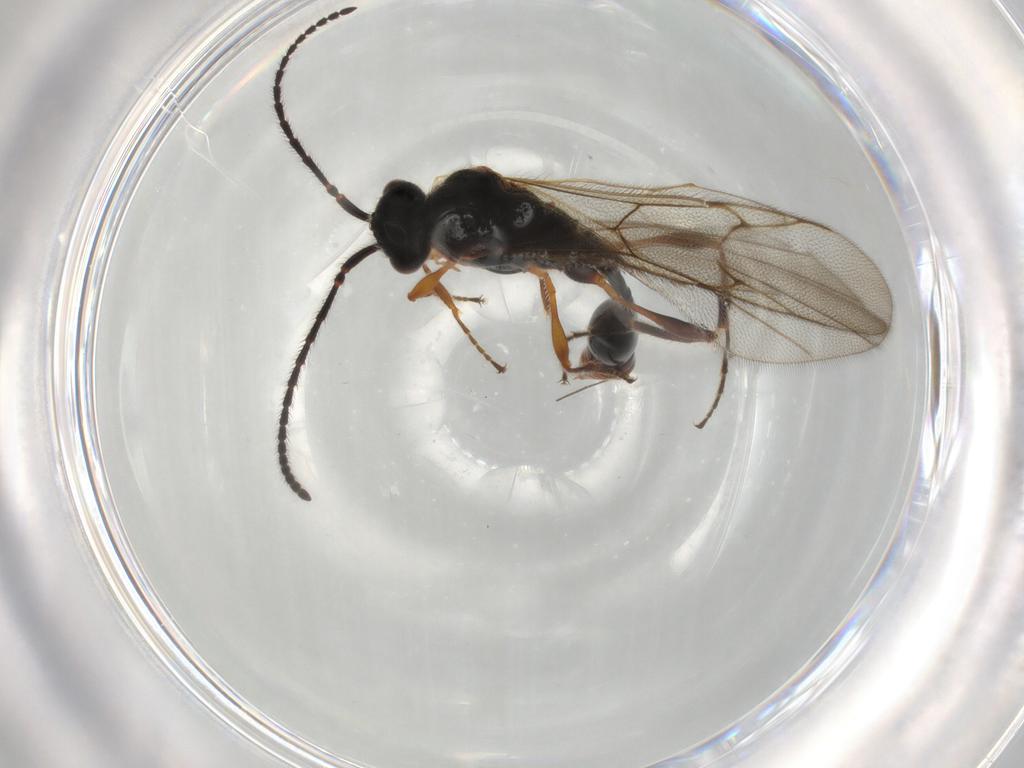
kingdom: Animalia
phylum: Arthropoda
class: Insecta
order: Hymenoptera
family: Diapriidae
